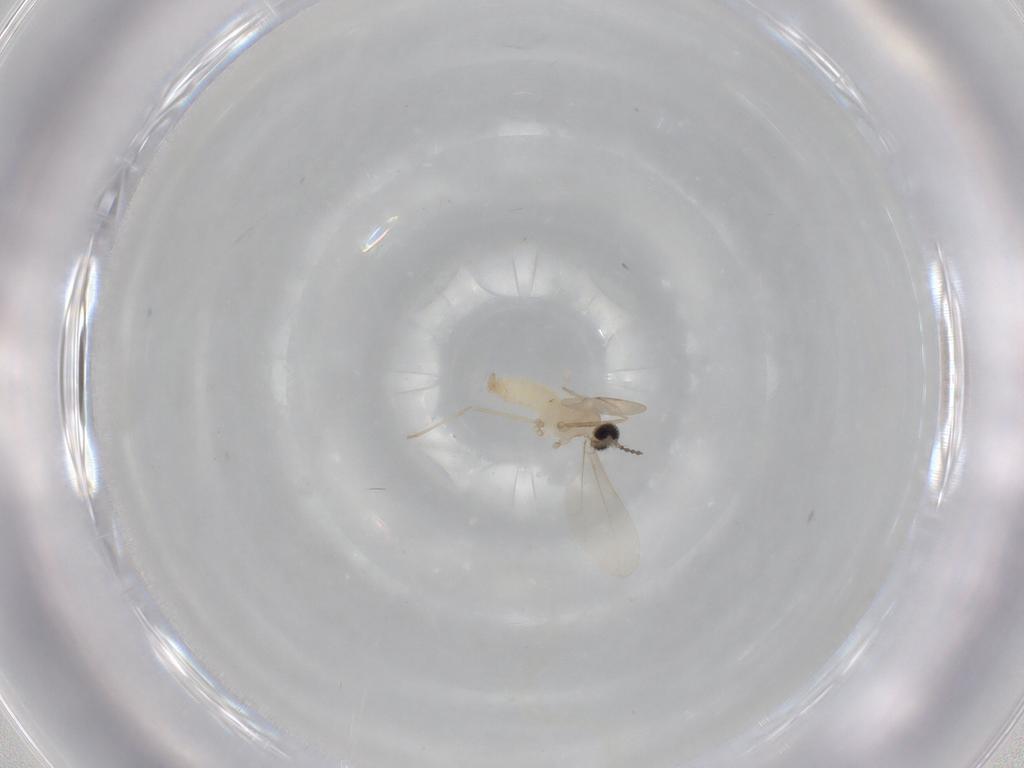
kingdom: Animalia
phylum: Arthropoda
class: Insecta
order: Diptera
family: Cecidomyiidae
